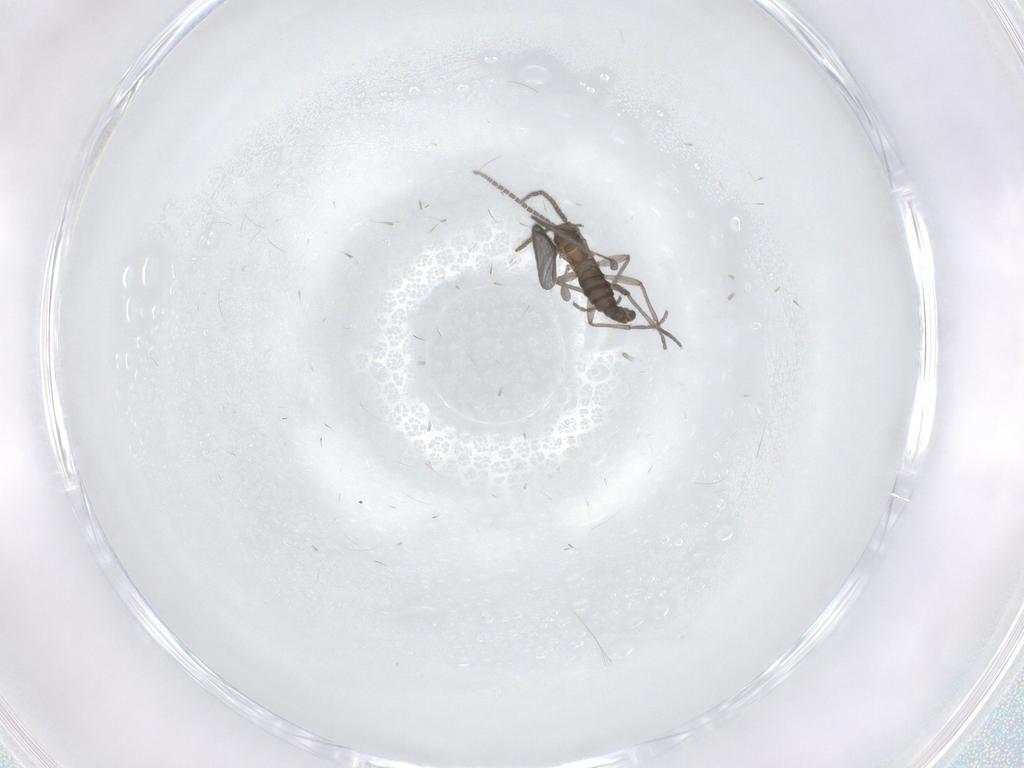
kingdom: Animalia
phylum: Arthropoda
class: Insecta
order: Diptera
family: Sciaridae
